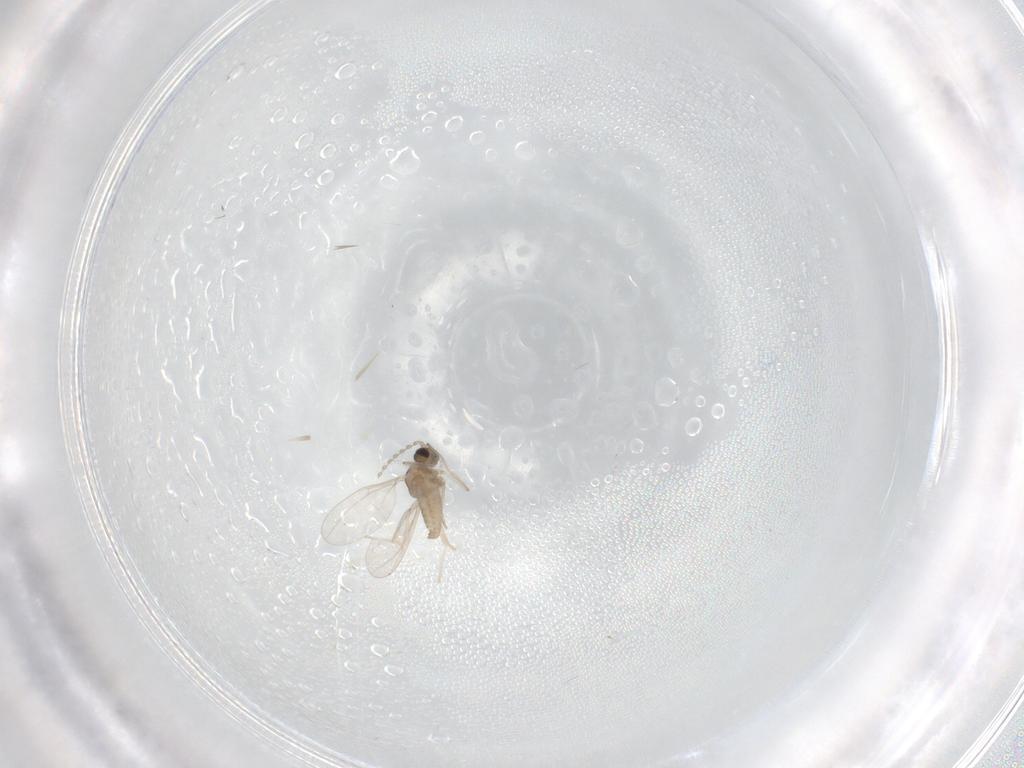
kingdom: Animalia
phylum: Arthropoda
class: Insecta
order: Diptera
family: Cecidomyiidae
